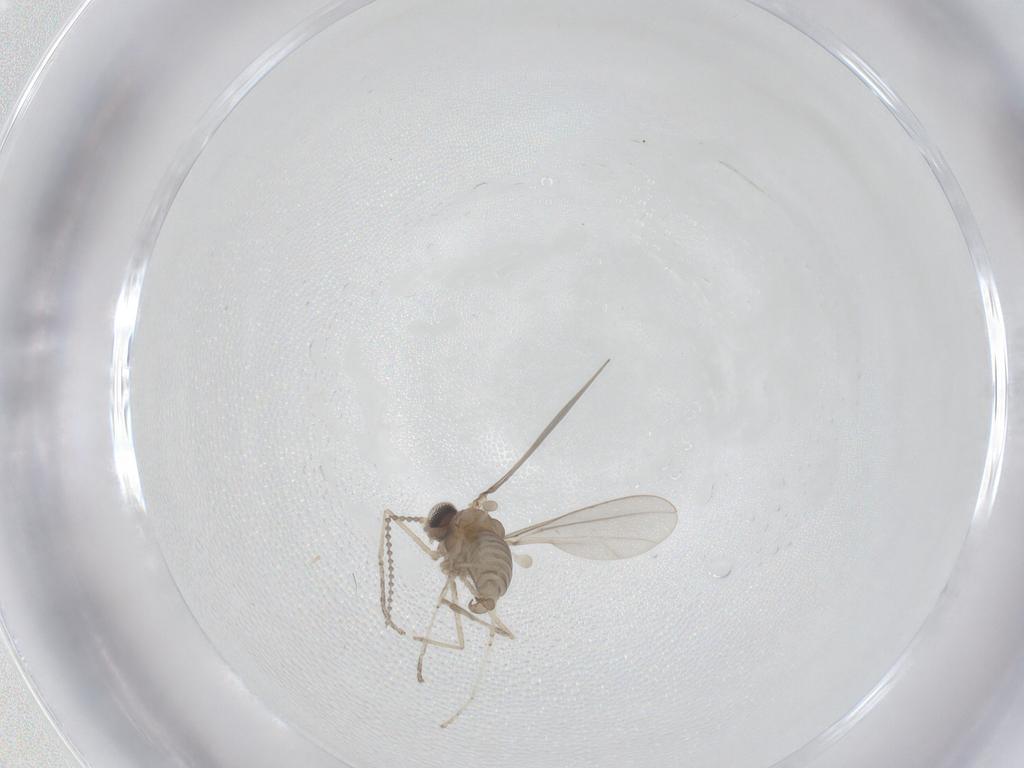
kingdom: Animalia
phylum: Arthropoda
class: Insecta
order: Diptera
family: Cecidomyiidae
